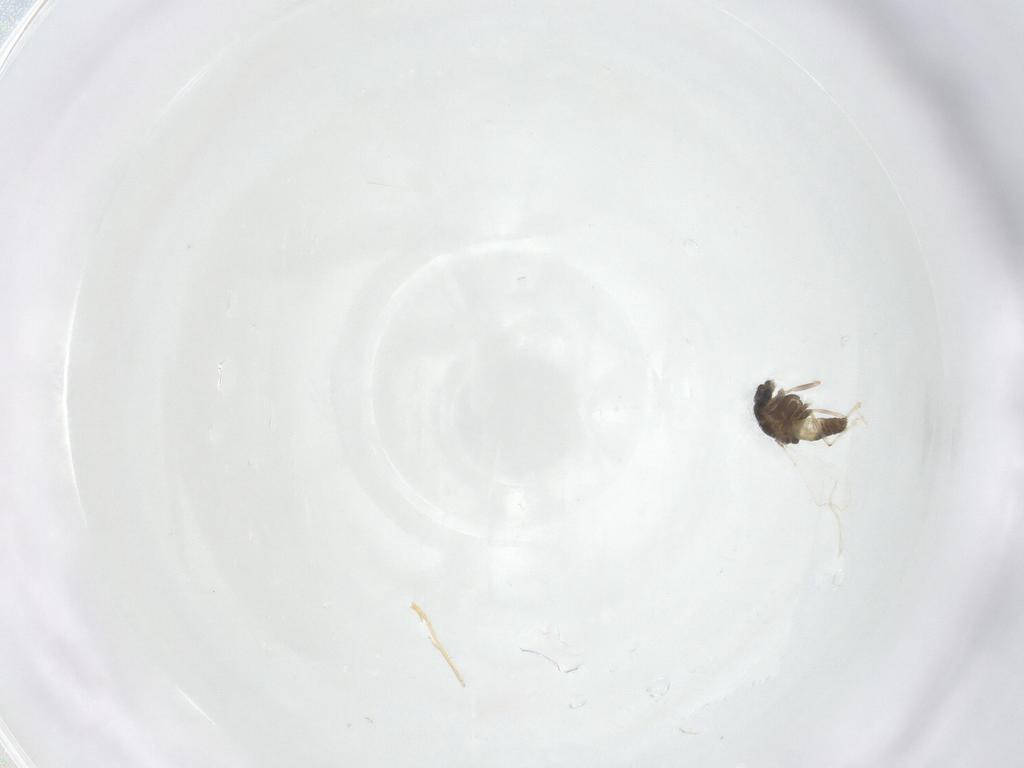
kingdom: Animalia
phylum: Arthropoda
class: Insecta
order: Diptera
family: Chironomidae
